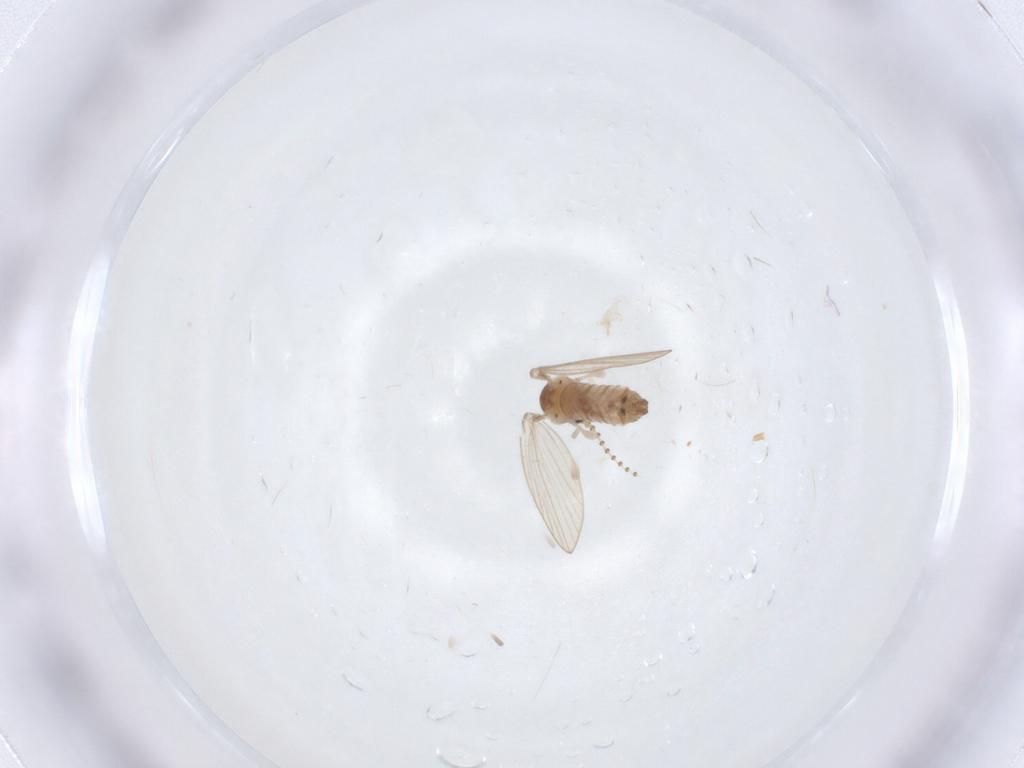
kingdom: Animalia
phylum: Arthropoda
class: Insecta
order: Diptera
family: Psychodidae
